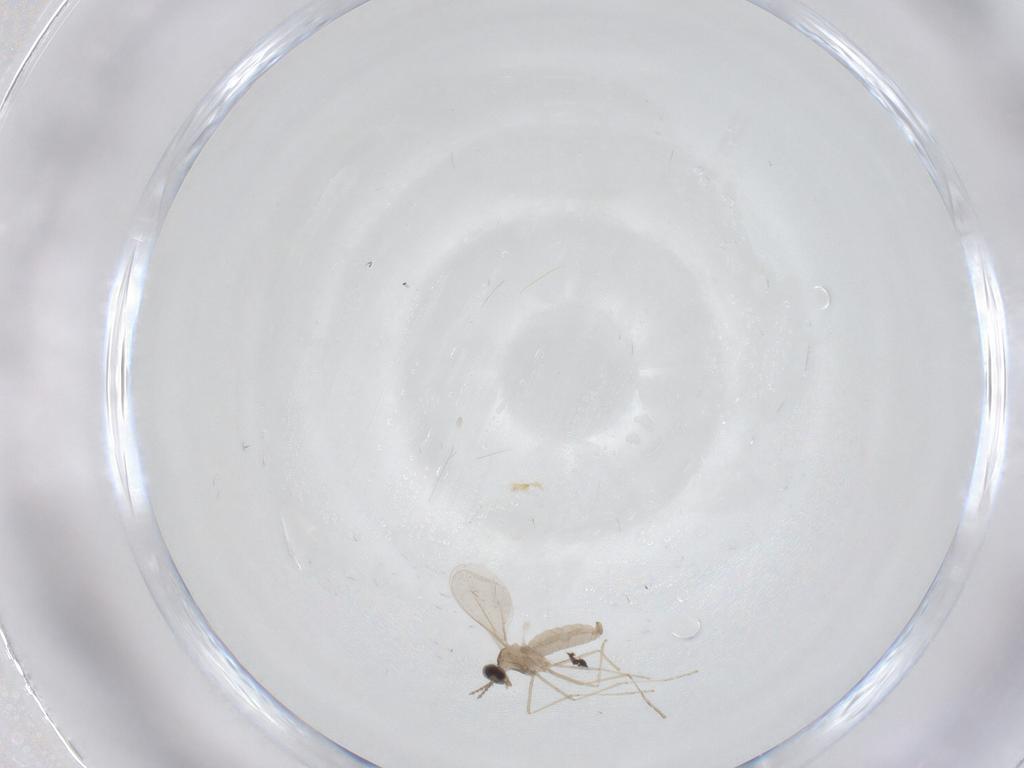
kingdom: Animalia
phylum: Arthropoda
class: Insecta
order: Diptera
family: Cecidomyiidae
